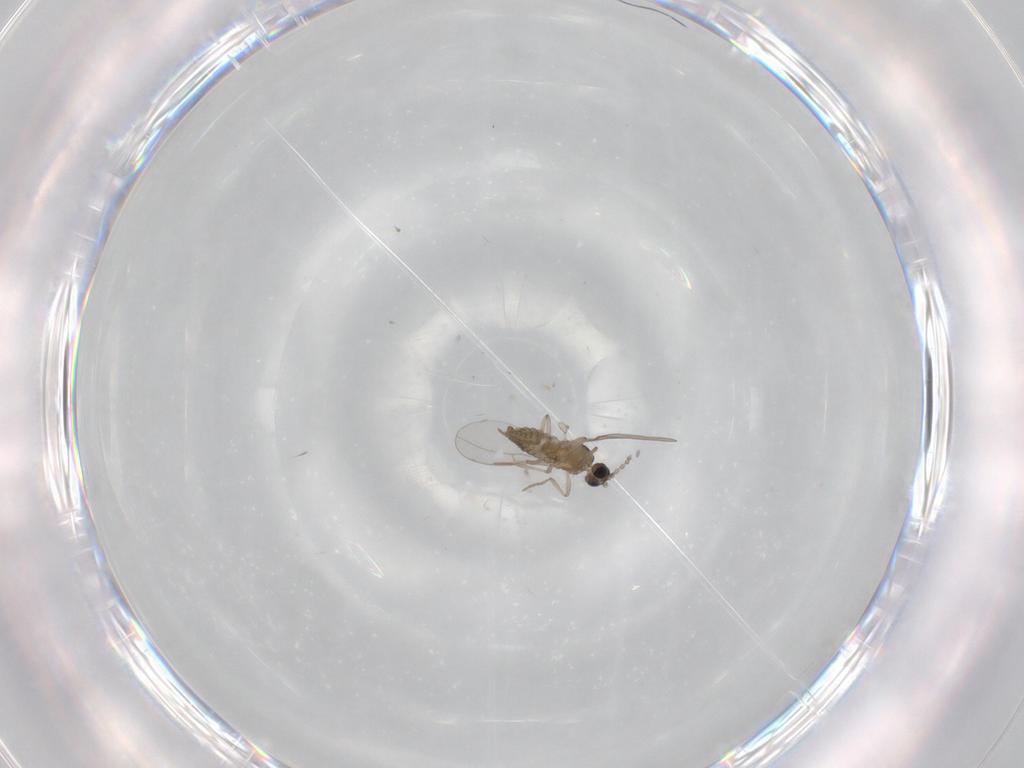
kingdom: Animalia
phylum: Arthropoda
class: Insecta
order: Diptera
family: Cecidomyiidae
